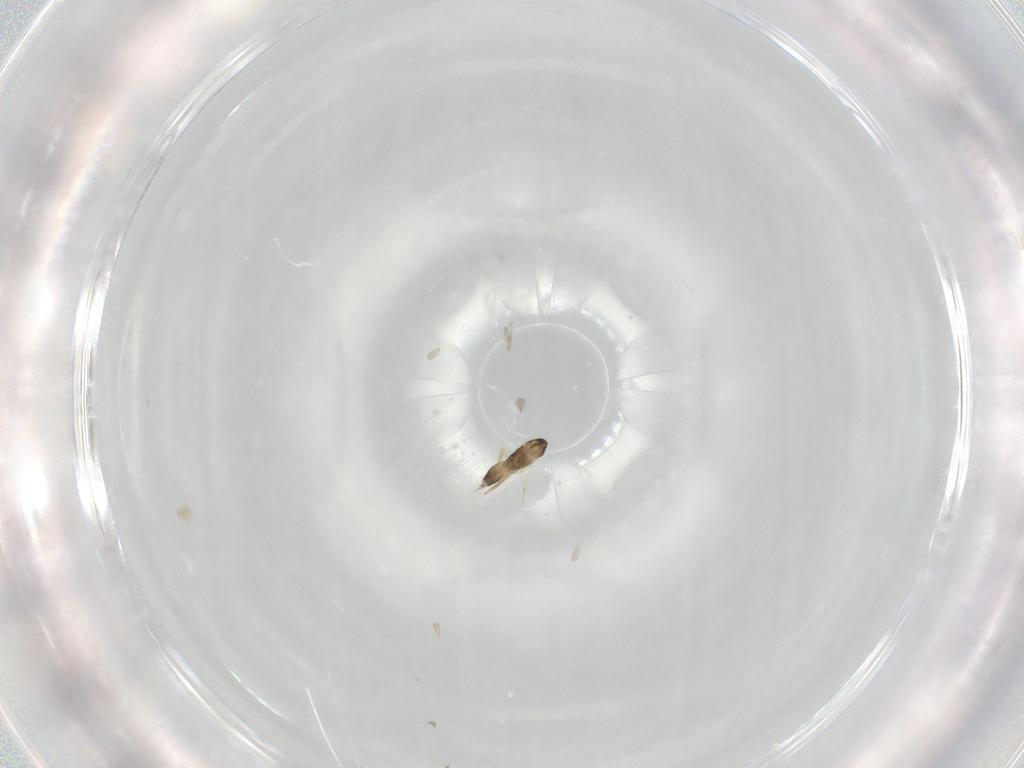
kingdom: Animalia
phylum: Arthropoda
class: Insecta
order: Hymenoptera
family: Mymaridae
